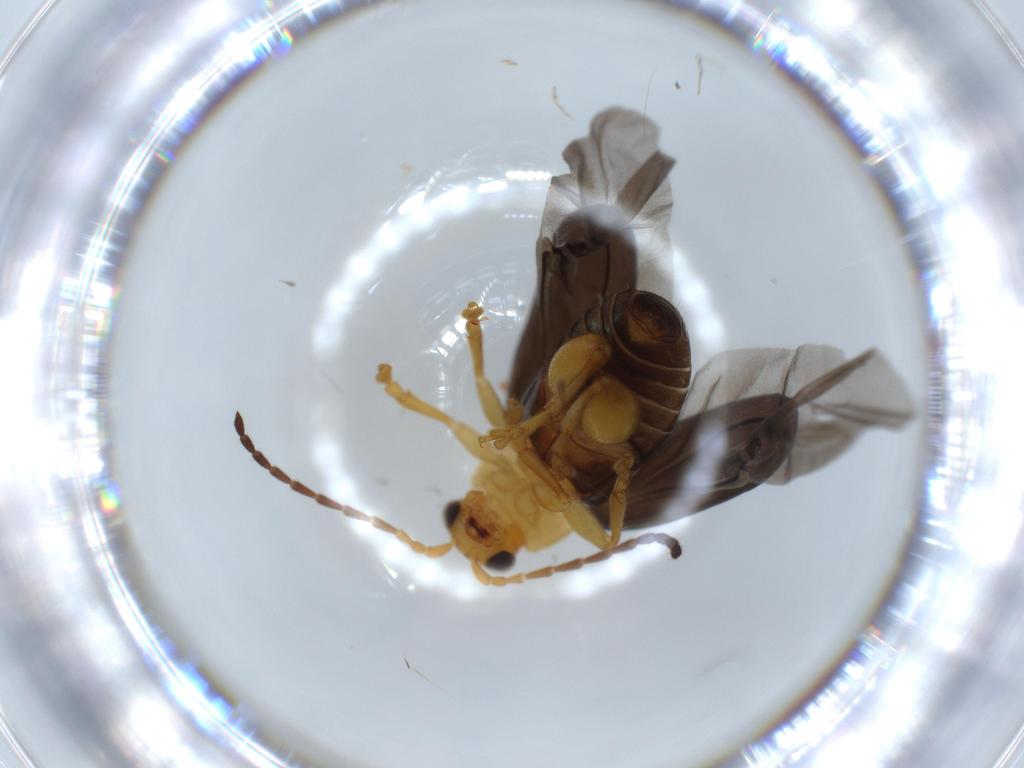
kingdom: Animalia
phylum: Arthropoda
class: Insecta
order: Coleoptera
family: Chrysomelidae
